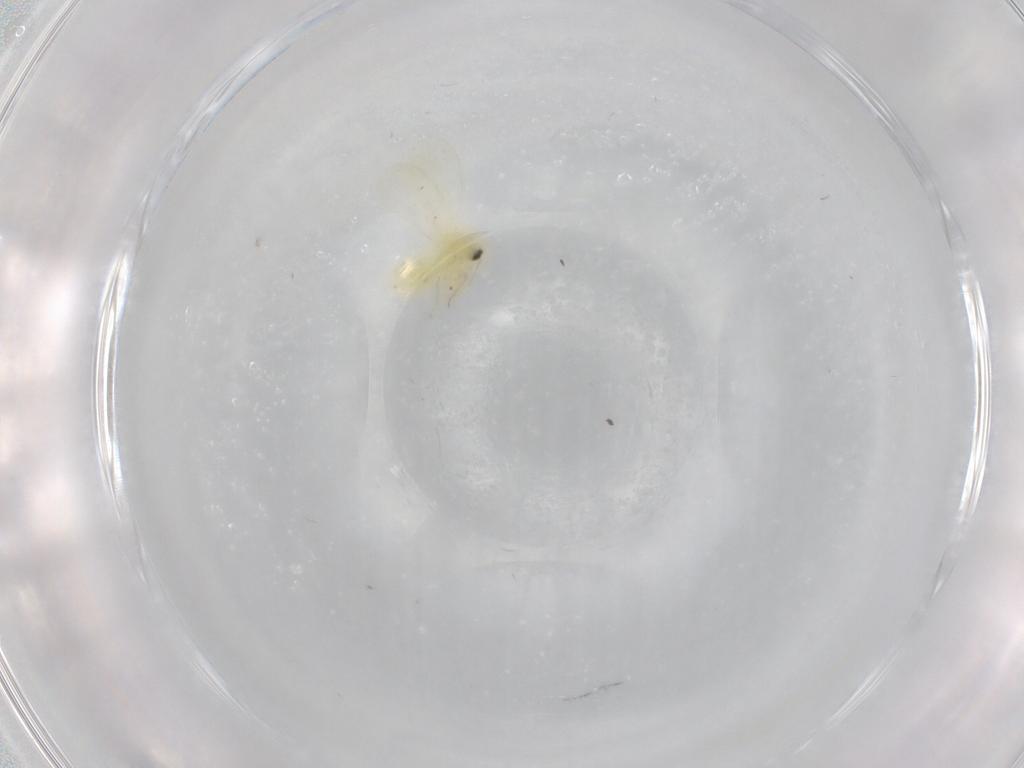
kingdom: Animalia
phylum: Arthropoda
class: Insecta
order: Hemiptera
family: Aleyrodidae
